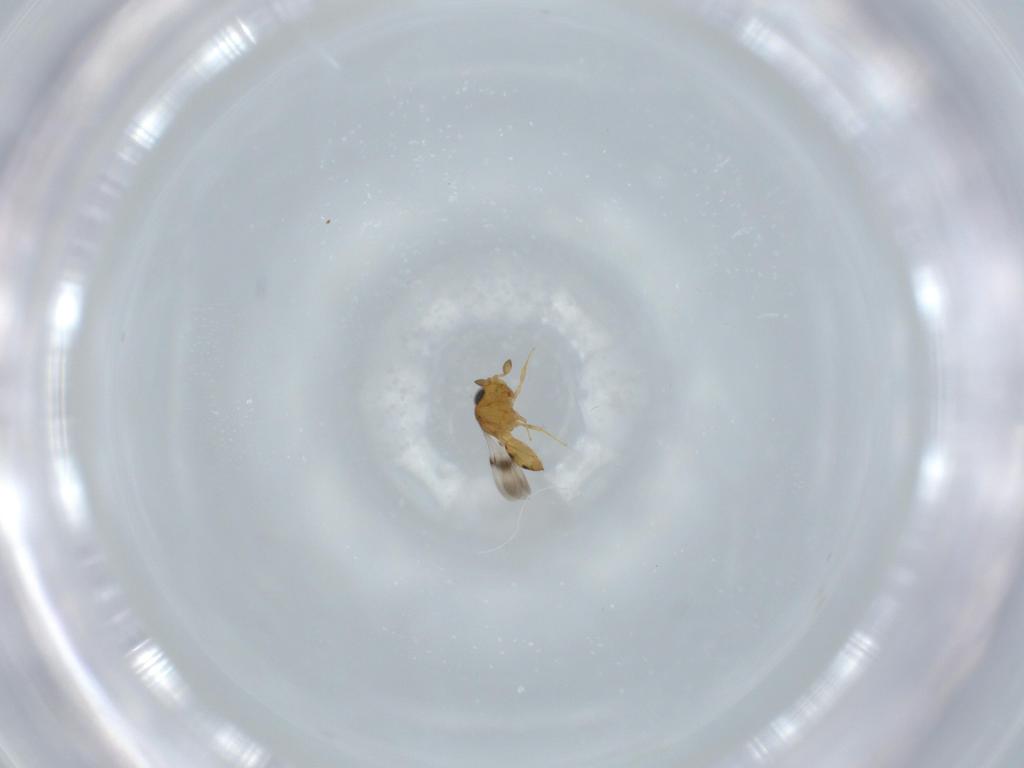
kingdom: Animalia
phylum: Arthropoda
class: Insecta
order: Hymenoptera
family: Scelionidae
